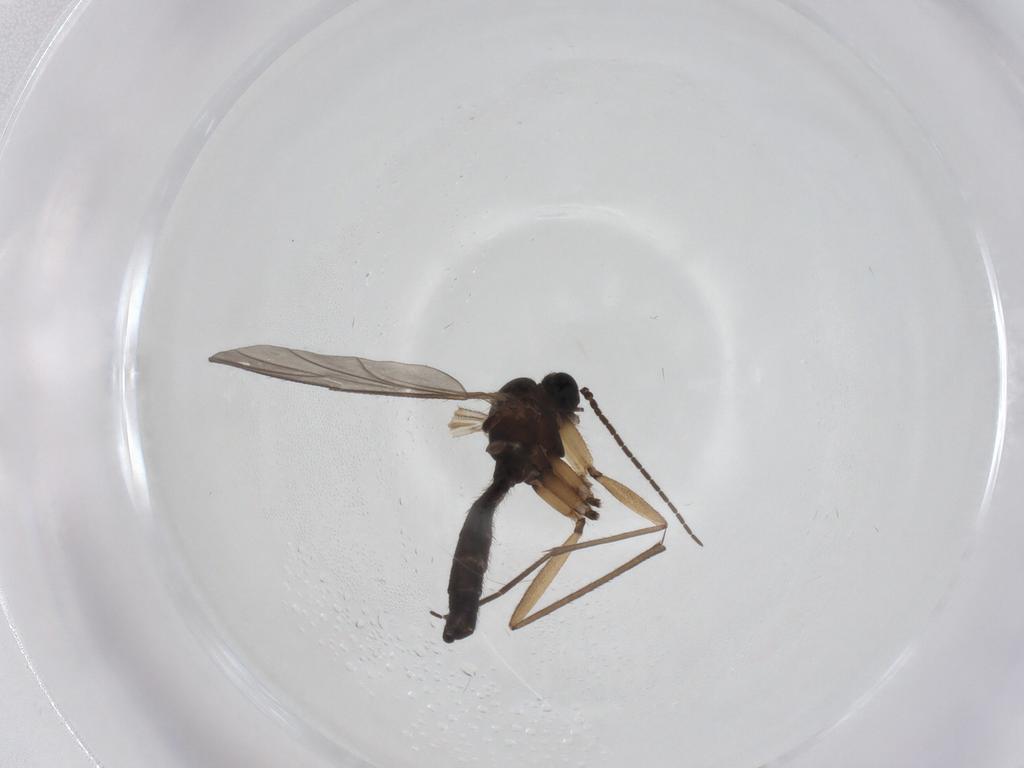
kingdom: Animalia
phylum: Arthropoda
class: Insecta
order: Diptera
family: Sciaridae
